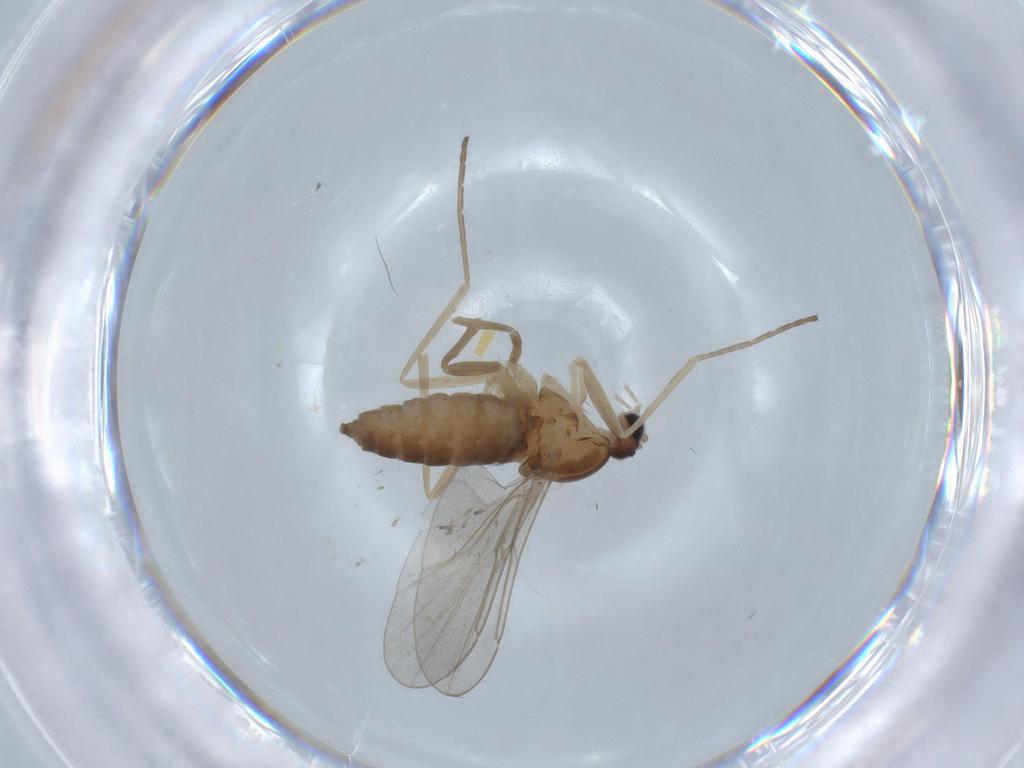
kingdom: Animalia
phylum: Arthropoda
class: Insecta
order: Diptera
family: Cecidomyiidae
